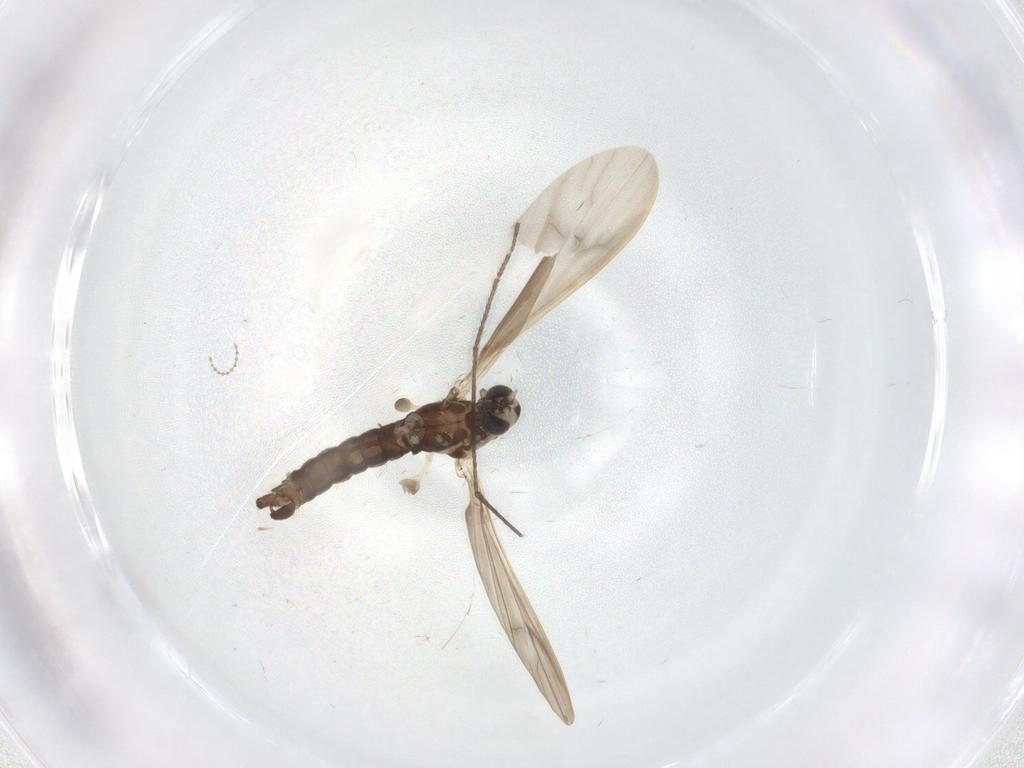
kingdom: Animalia
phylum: Arthropoda
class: Insecta
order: Diptera
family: Limoniidae
